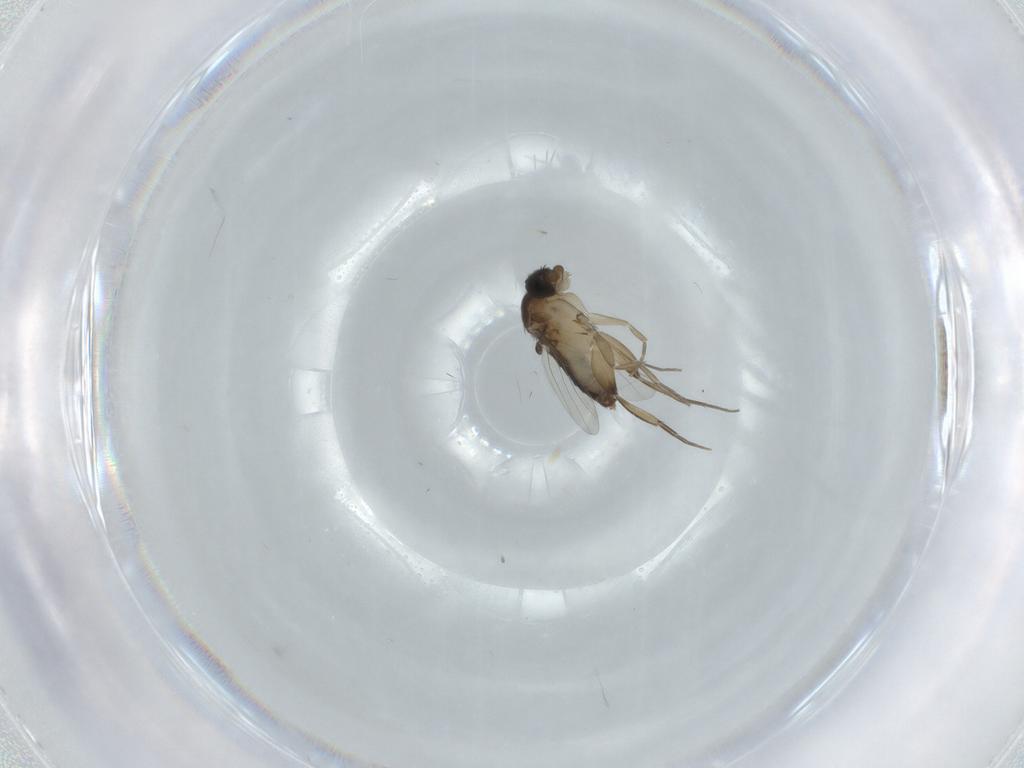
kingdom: Animalia
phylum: Arthropoda
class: Insecta
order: Diptera
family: Phoridae
